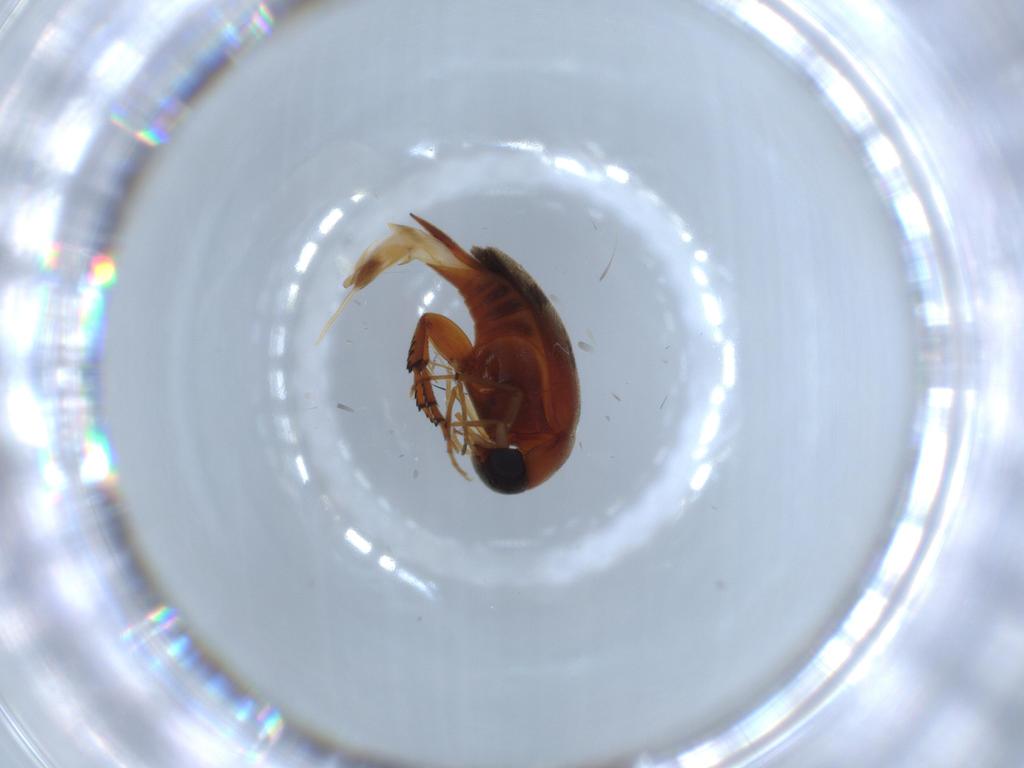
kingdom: Animalia
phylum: Arthropoda
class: Insecta
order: Coleoptera
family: Mordellidae
